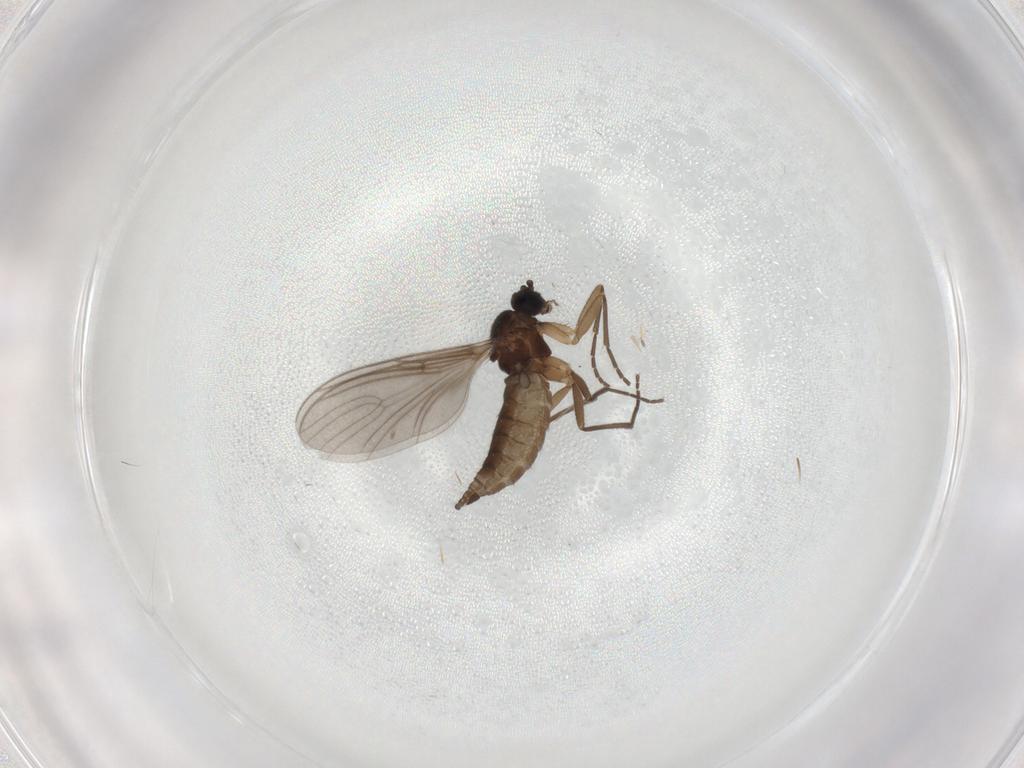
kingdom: Animalia
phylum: Arthropoda
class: Insecta
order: Diptera
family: Sciaridae
